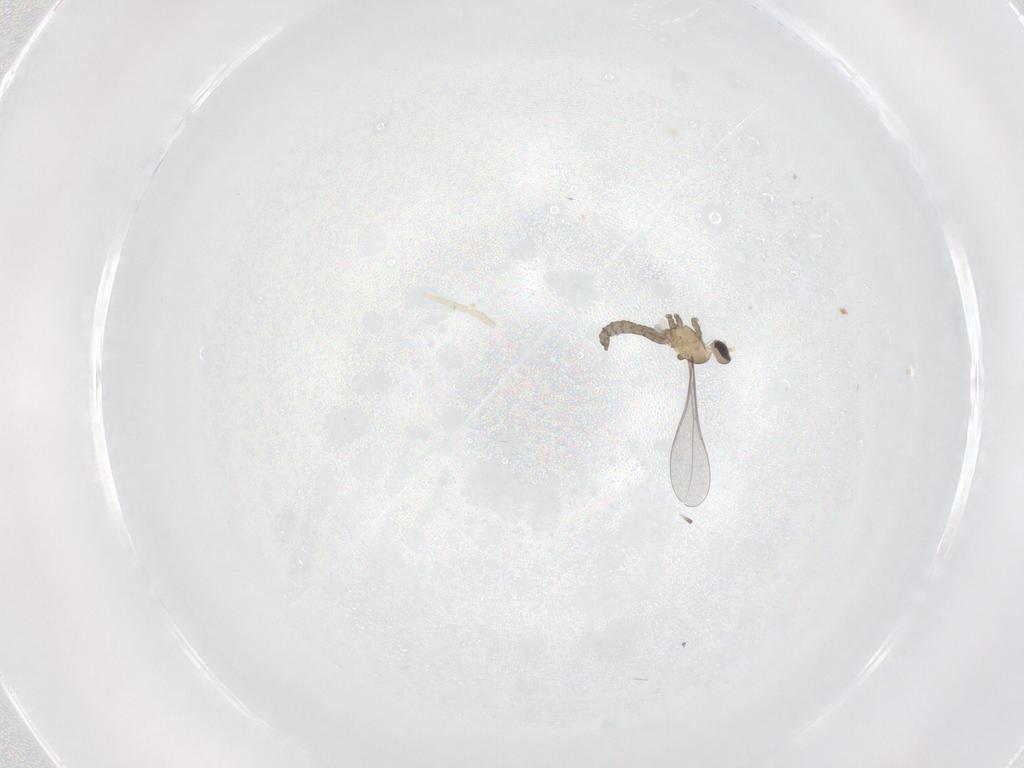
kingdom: Animalia
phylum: Arthropoda
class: Insecta
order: Diptera
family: Cecidomyiidae
